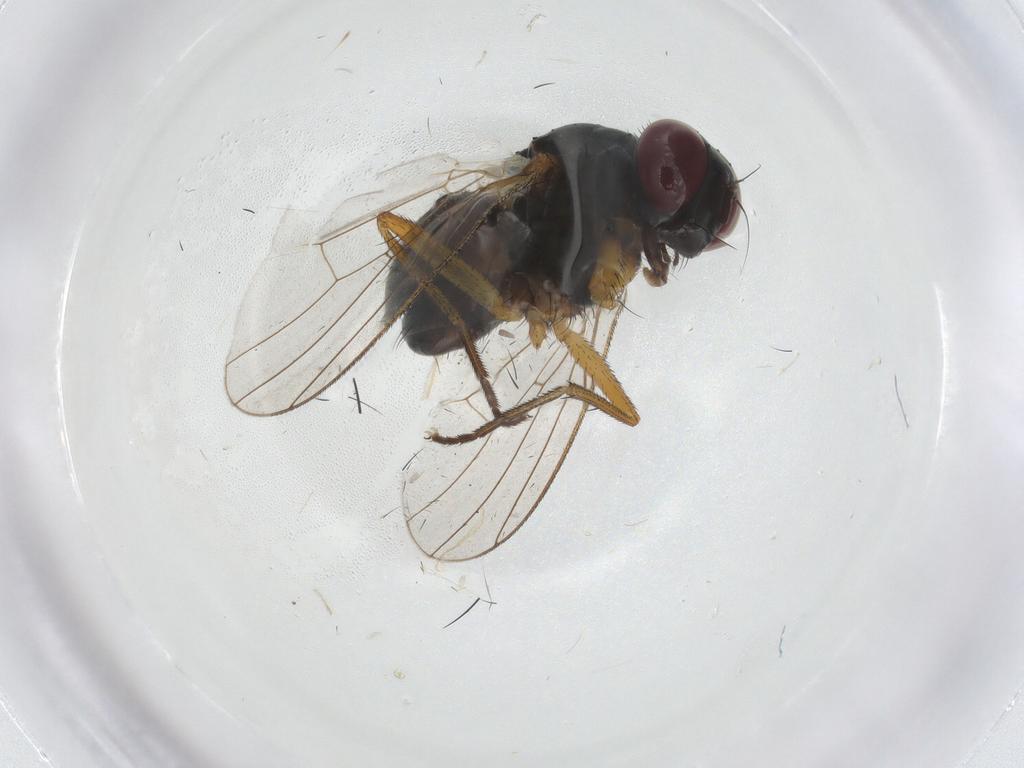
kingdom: Animalia
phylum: Arthropoda
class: Insecta
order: Diptera
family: Muscidae
